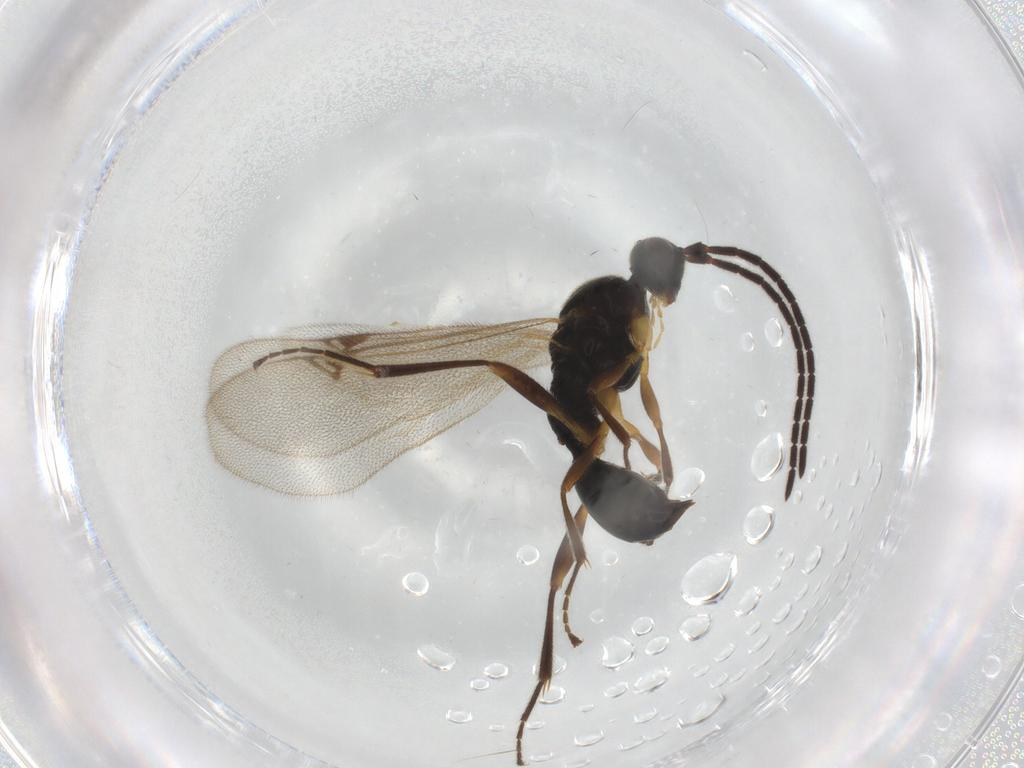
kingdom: Animalia
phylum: Arthropoda
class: Insecta
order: Hymenoptera
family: Proctotrupidae
